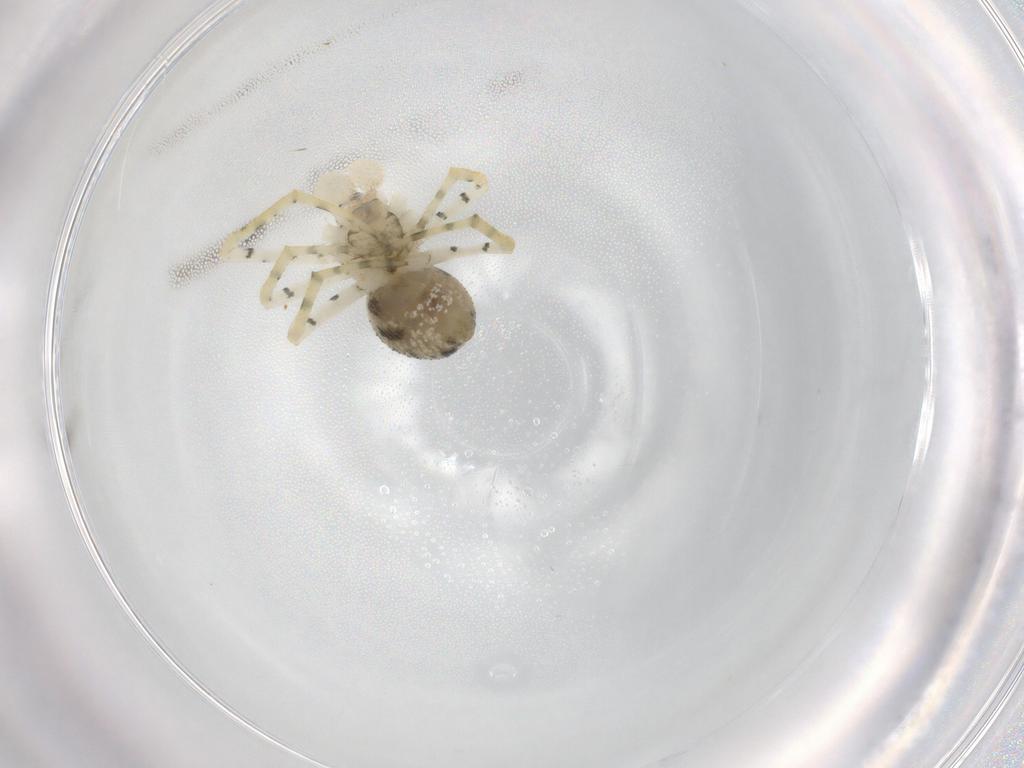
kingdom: Animalia
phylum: Arthropoda
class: Arachnida
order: Araneae
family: Theridiidae
